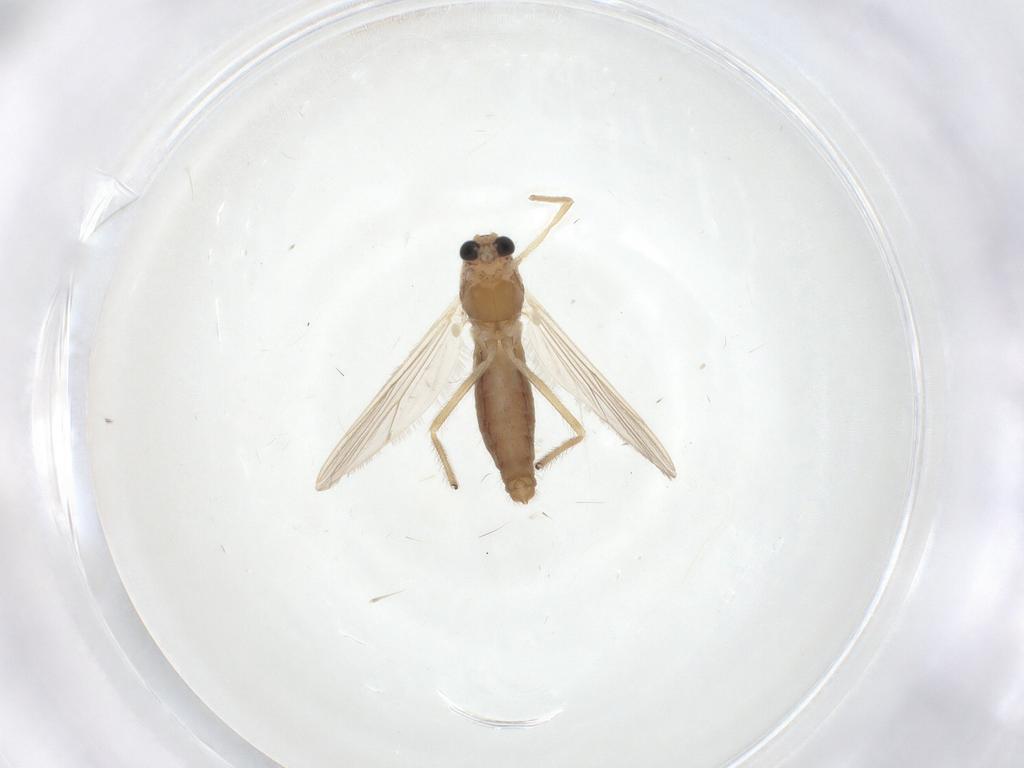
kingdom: Animalia
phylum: Arthropoda
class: Insecta
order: Diptera
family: Chironomidae
